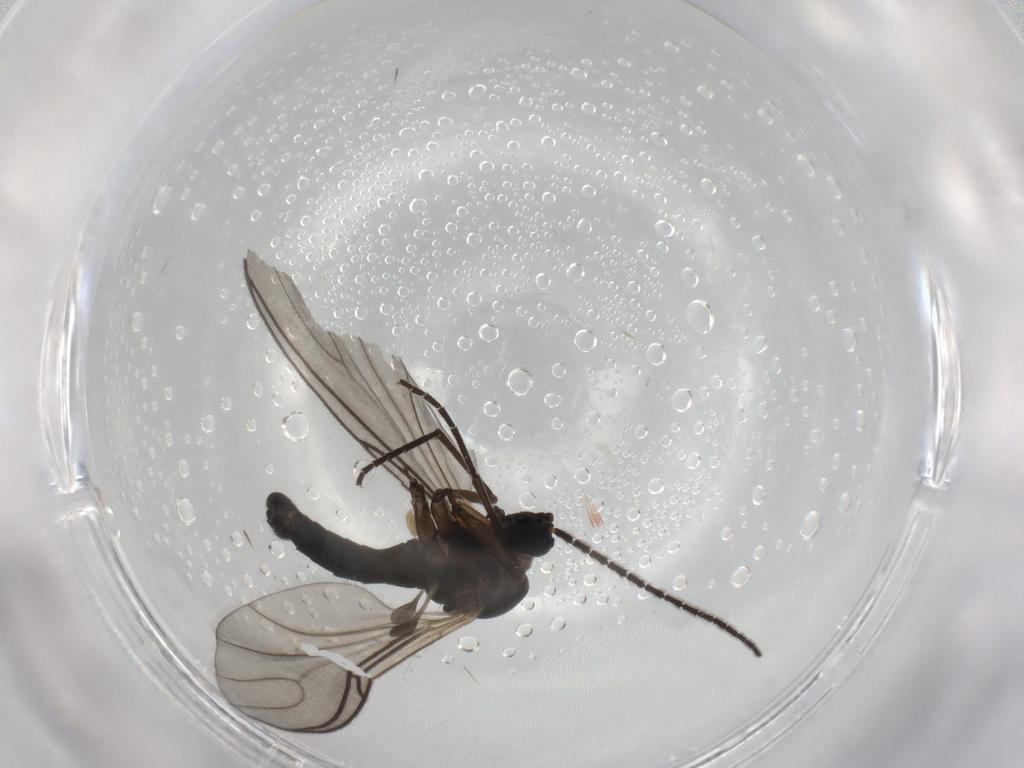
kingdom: Animalia
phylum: Arthropoda
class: Insecta
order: Diptera
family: Sciaridae
